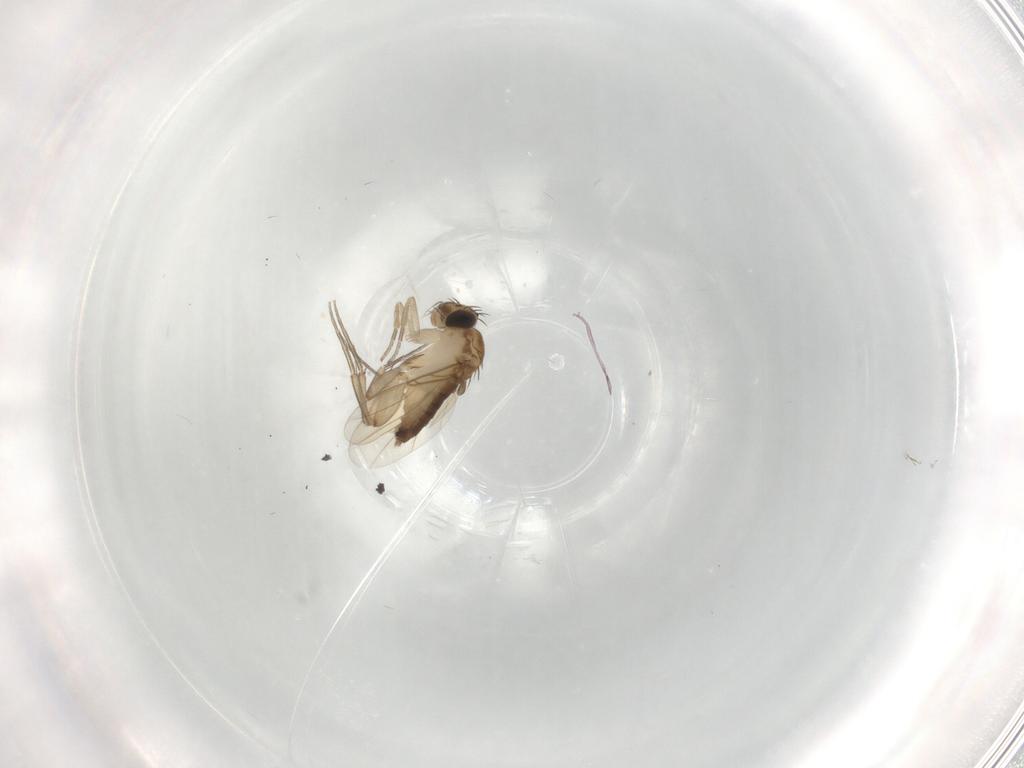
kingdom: Animalia
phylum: Arthropoda
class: Insecta
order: Diptera
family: Phoridae
